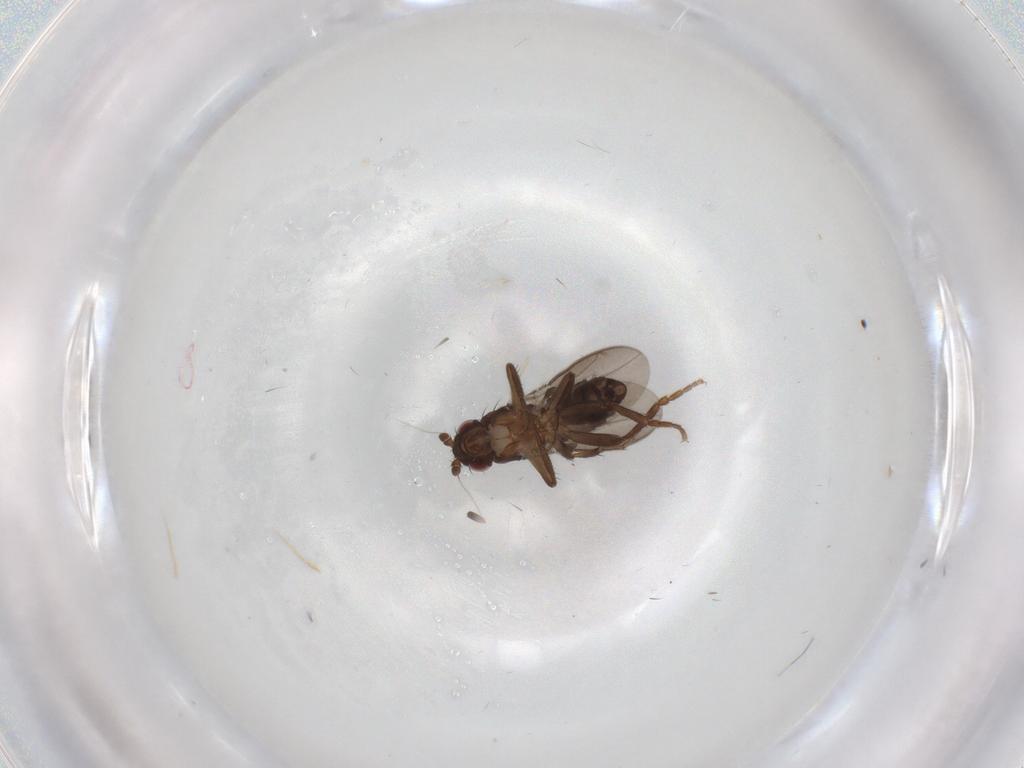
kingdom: Animalia
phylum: Arthropoda
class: Insecta
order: Diptera
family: Sphaeroceridae
